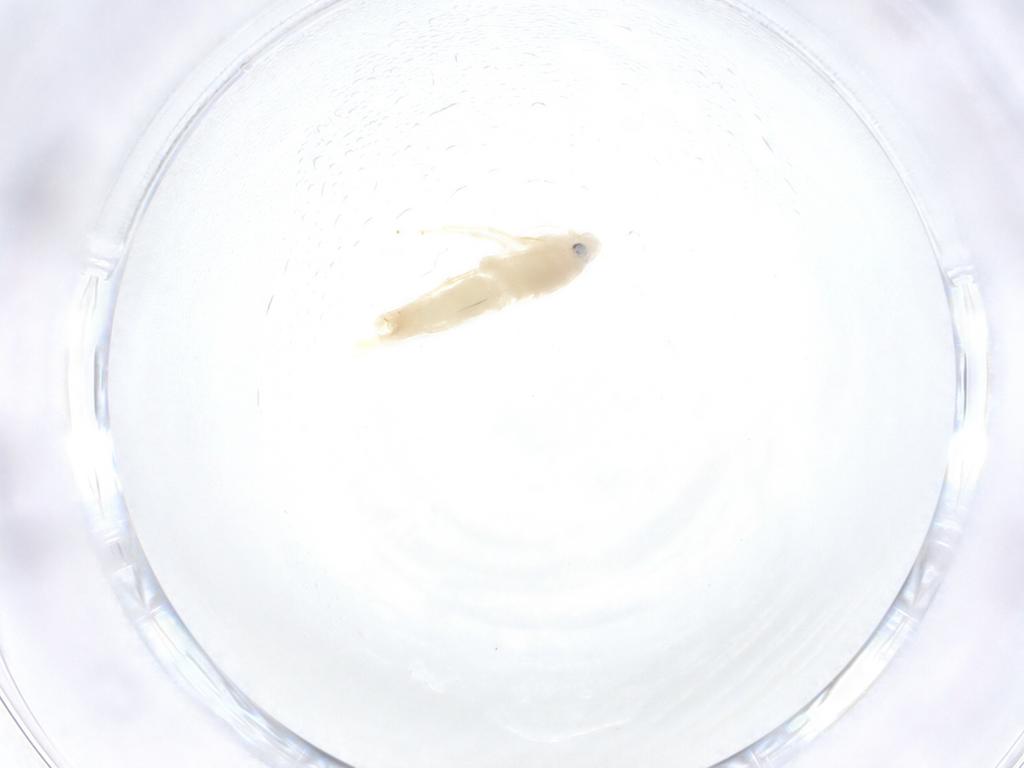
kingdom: Animalia
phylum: Arthropoda
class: Insecta
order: Hemiptera
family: Cicadellidae
